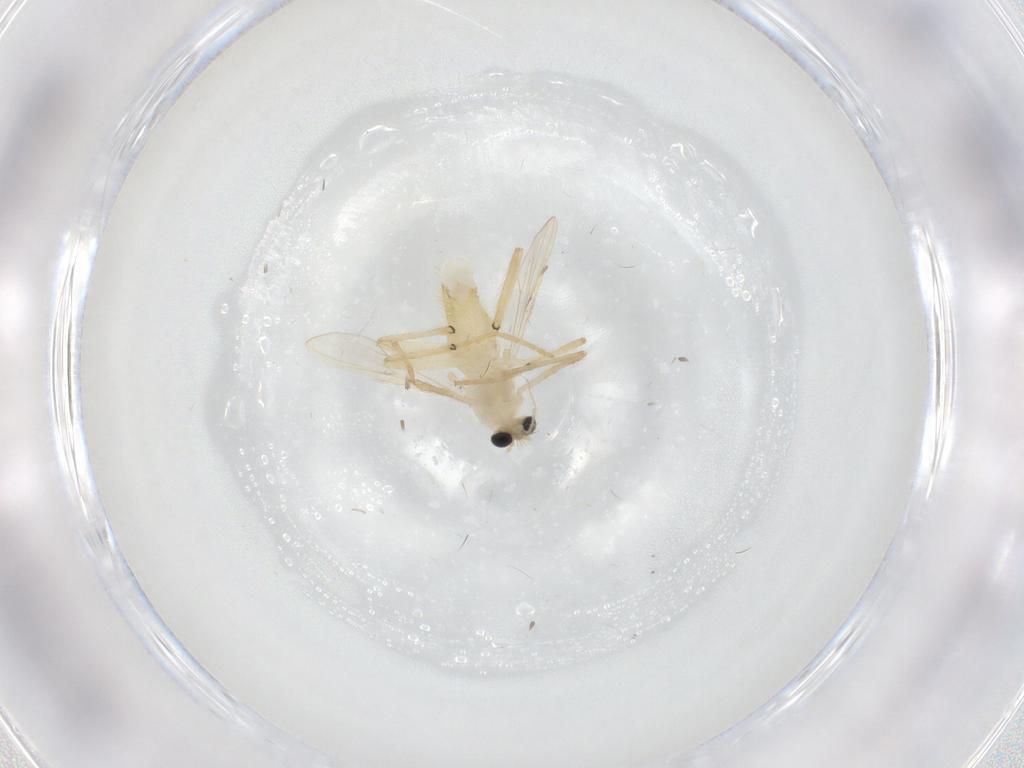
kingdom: Animalia
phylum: Arthropoda
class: Insecta
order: Diptera
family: Chironomidae
